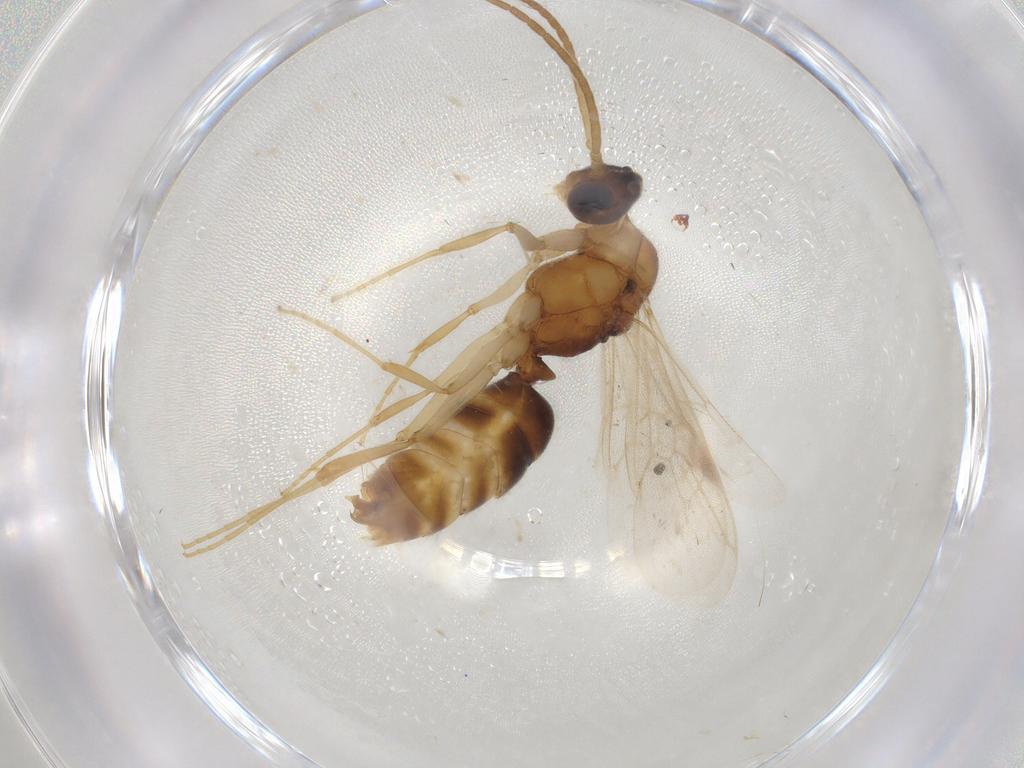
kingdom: Animalia
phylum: Arthropoda
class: Insecta
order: Hymenoptera
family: Formicidae
